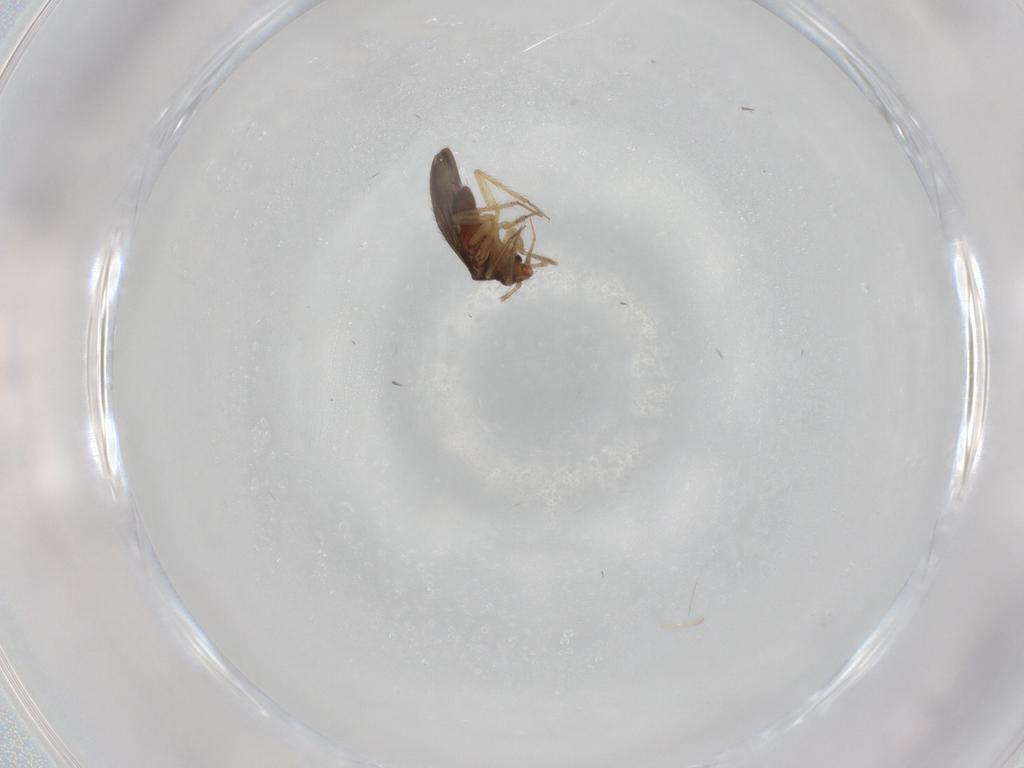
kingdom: Animalia
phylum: Arthropoda
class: Insecta
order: Hemiptera
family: Ceratocombidae
